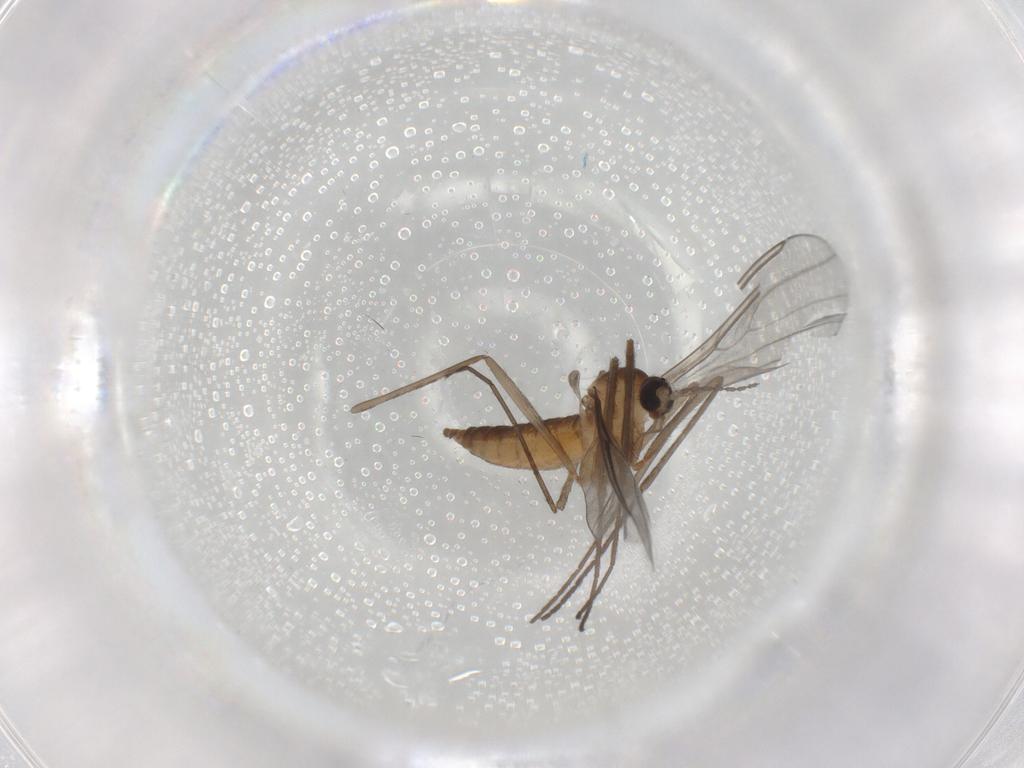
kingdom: Animalia
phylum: Arthropoda
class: Insecta
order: Diptera
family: Cecidomyiidae
